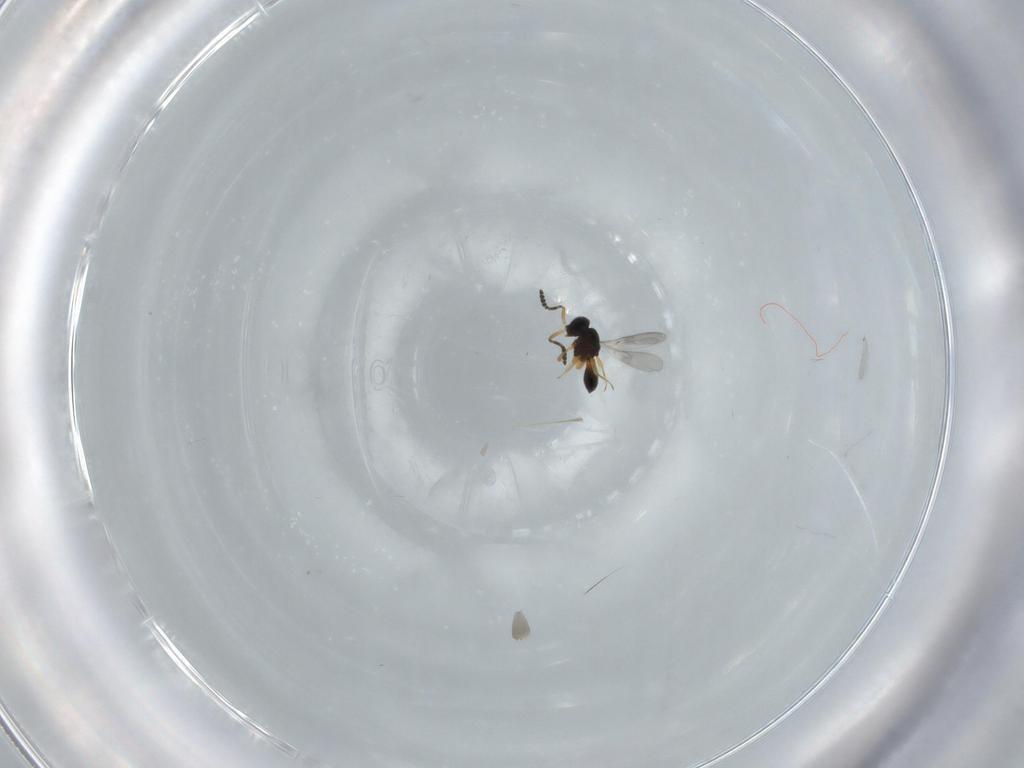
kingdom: Animalia
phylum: Arthropoda
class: Insecta
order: Hymenoptera
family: Scelionidae
